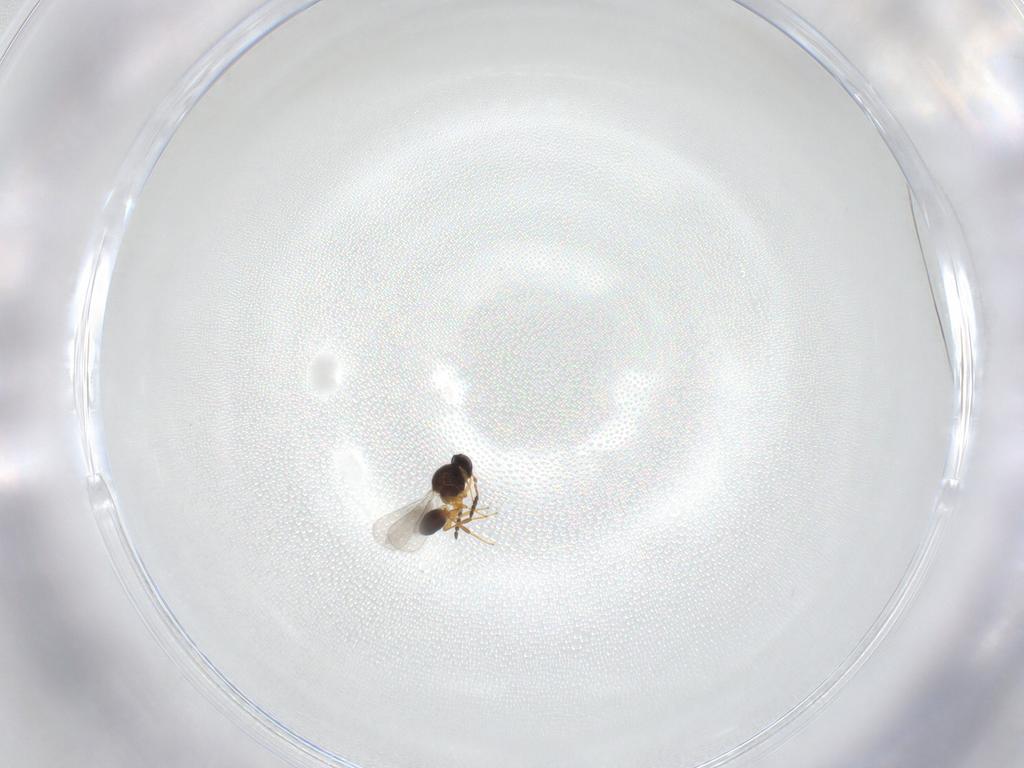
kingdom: Animalia
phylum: Arthropoda
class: Insecta
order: Hymenoptera
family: Platygastridae
